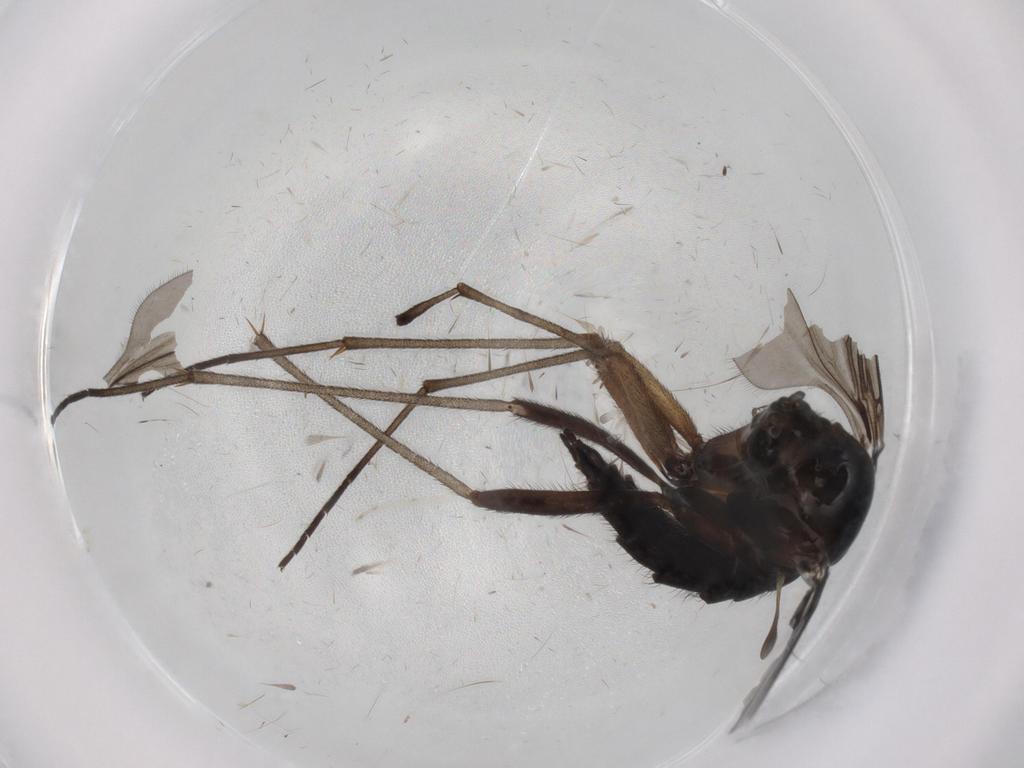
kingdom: Animalia
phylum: Arthropoda
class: Insecta
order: Diptera
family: Sciaridae
